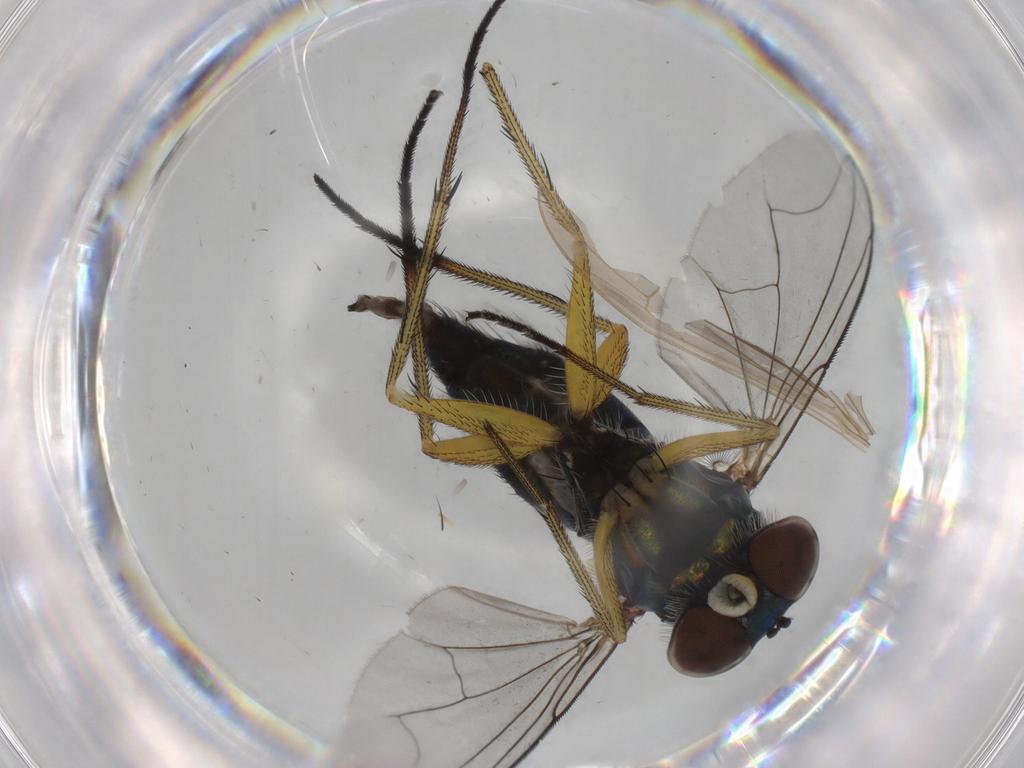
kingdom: Animalia
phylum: Arthropoda
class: Insecta
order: Diptera
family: Dolichopodidae
